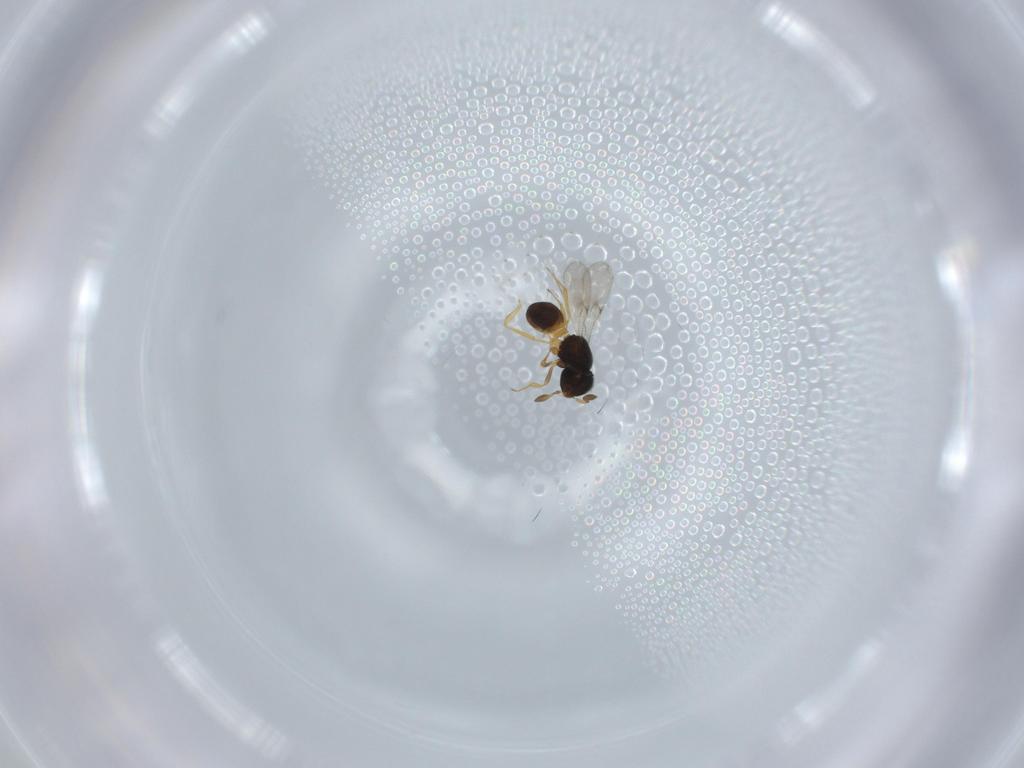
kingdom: Animalia
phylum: Arthropoda
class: Insecta
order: Hymenoptera
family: Scelionidae
